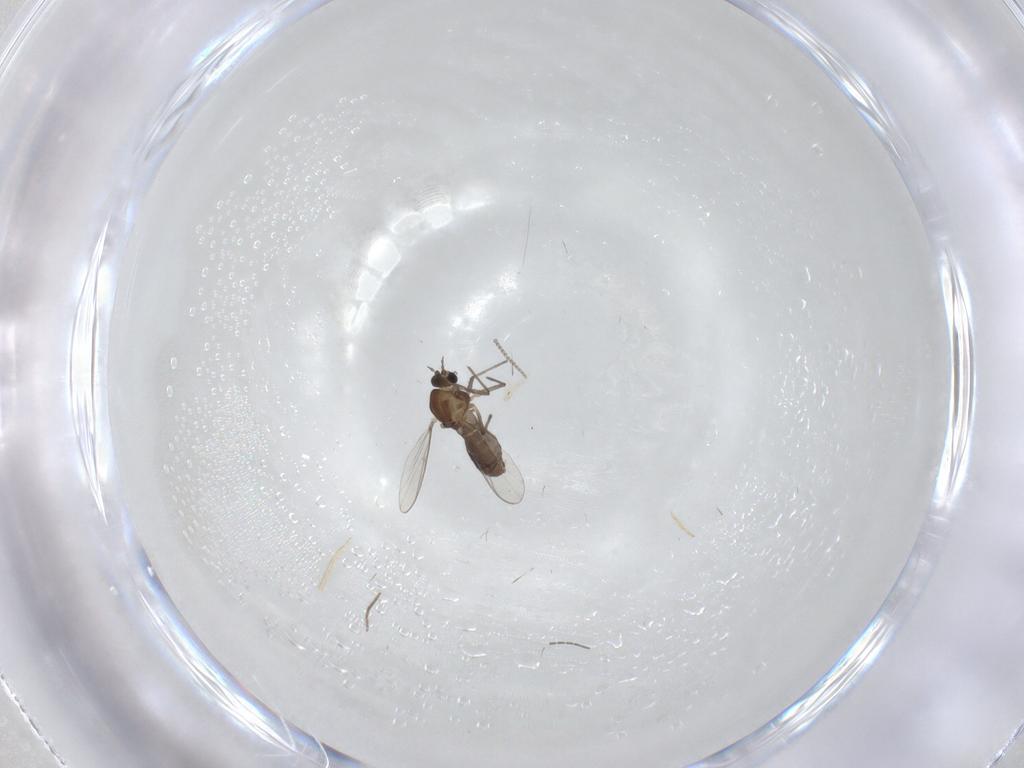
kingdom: Animalia
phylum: Arthropoda
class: Insecta
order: Diptera
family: Chironomidae
